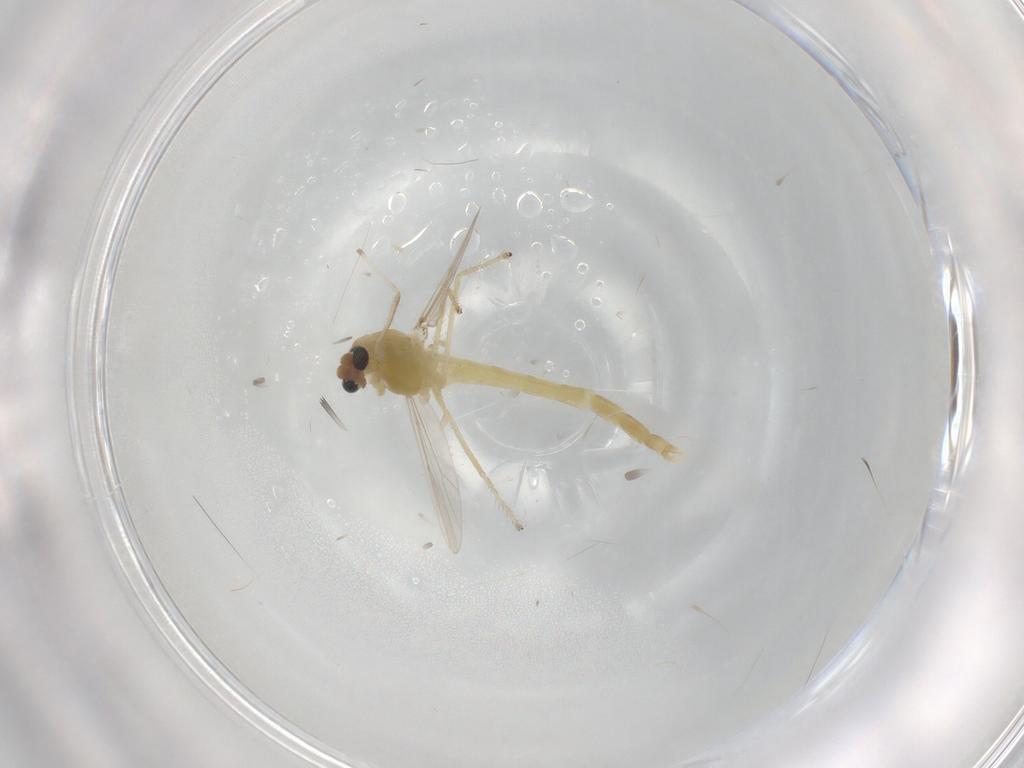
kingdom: Animalia
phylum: Arthropoda
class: Insecta
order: Diptera
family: Chironomidae
